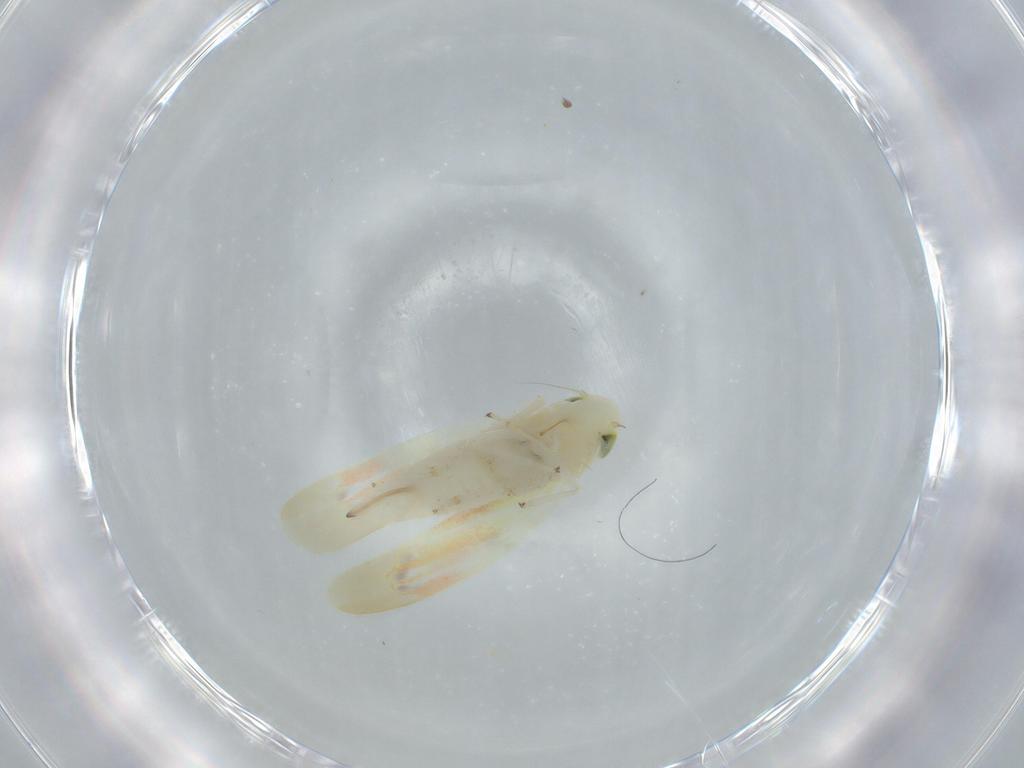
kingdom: Animalia
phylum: Arthropoda
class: Insecta
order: Hemiptera
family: Cicadellidae
